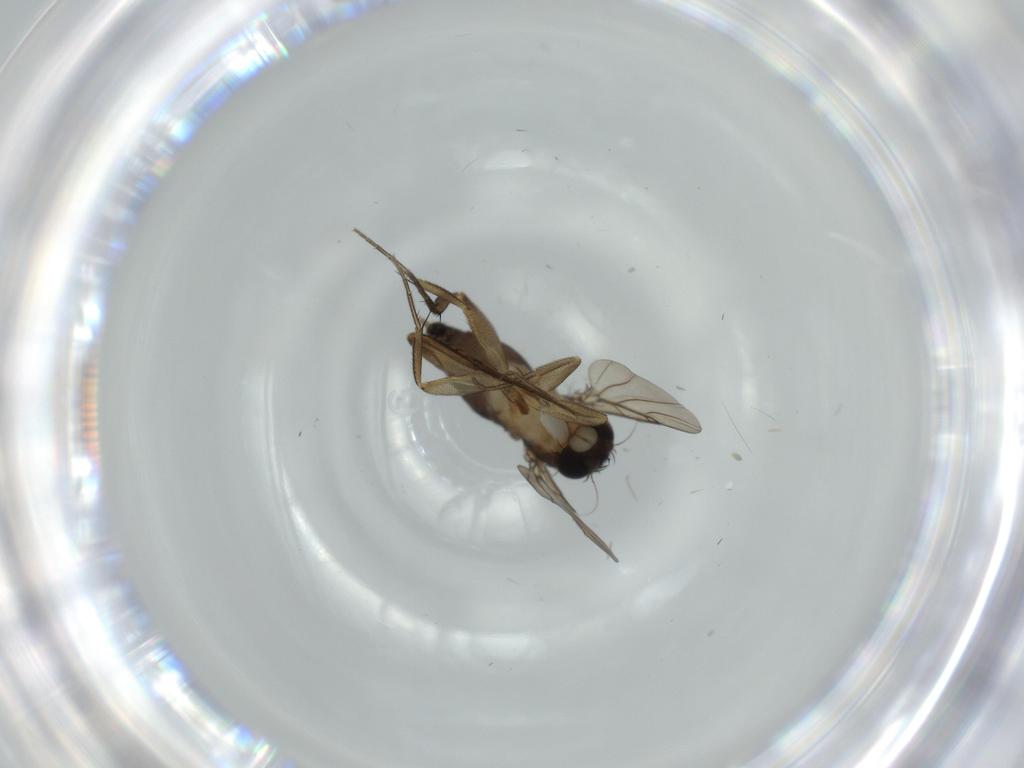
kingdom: Animalia
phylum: Arthropoda
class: Insecta
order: Diptera
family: Phoridae
